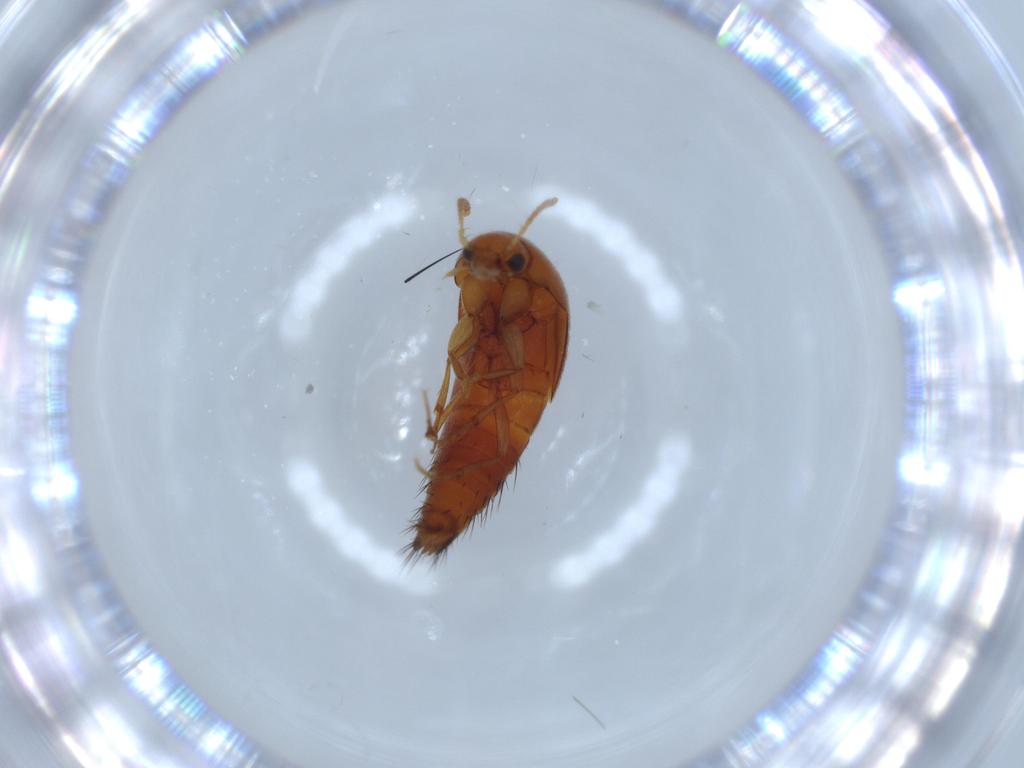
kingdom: Animalia
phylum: Arthropoda
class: Insecta
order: Coleoptera
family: Staphylinidae
